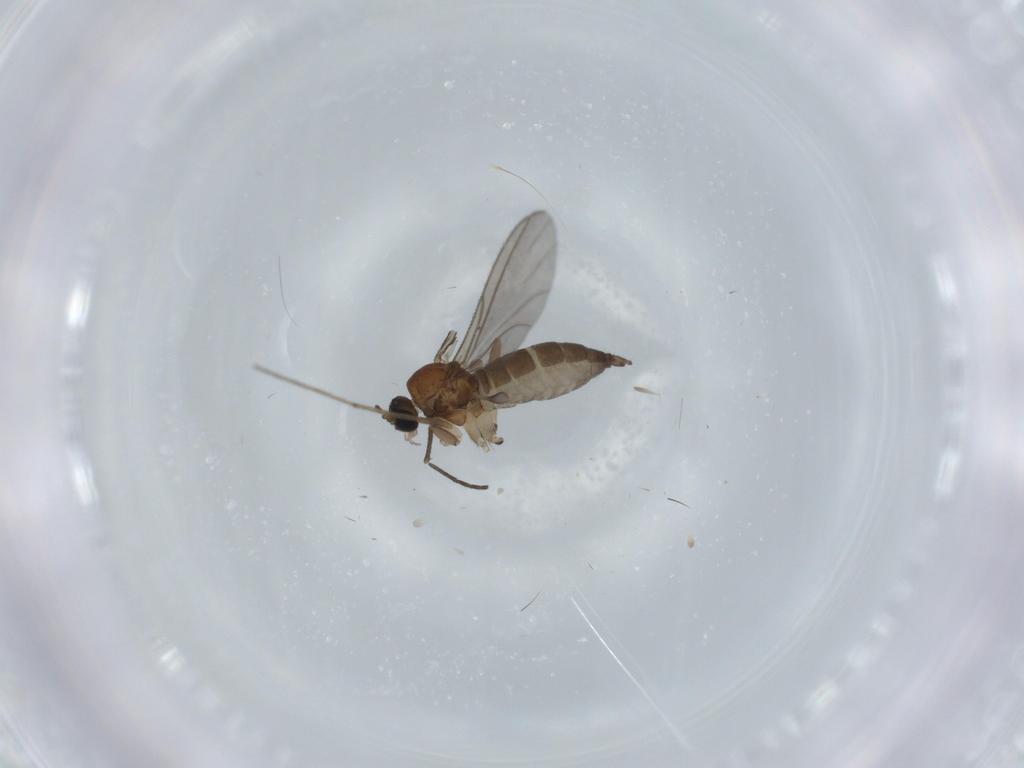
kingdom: Animalia
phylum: Arthropoda
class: Insecta
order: Diptera
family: Sciaridae
